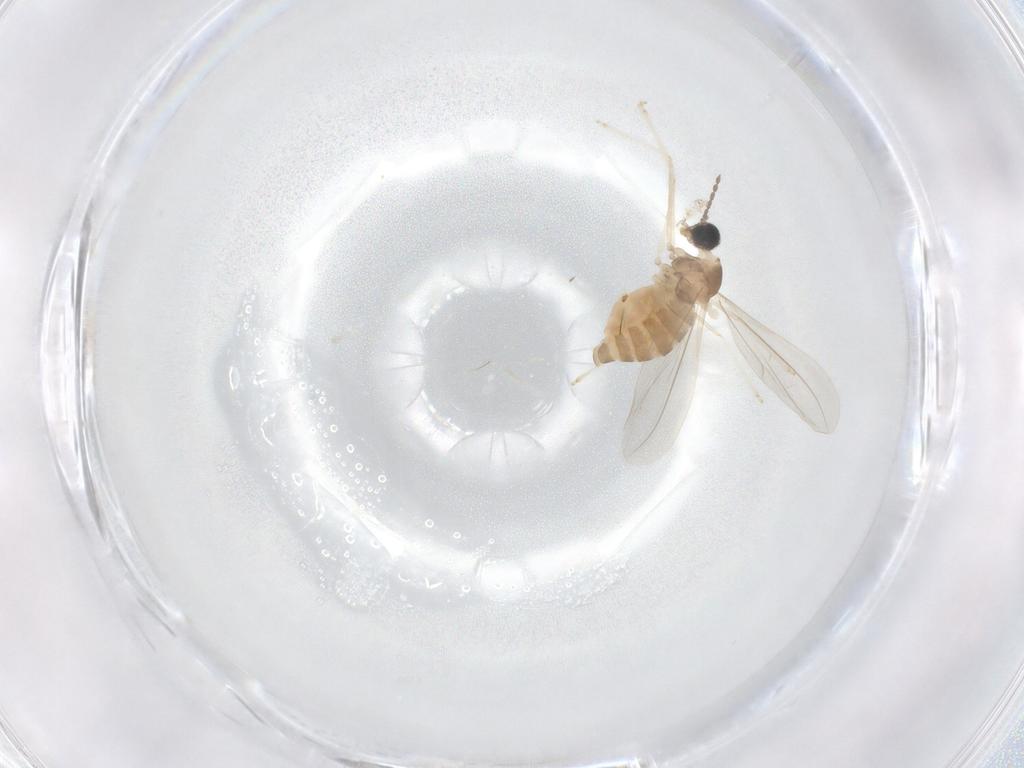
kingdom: Animalia
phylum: Arthropoda
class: Insecta
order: Diptera
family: Cecidomyiidae
